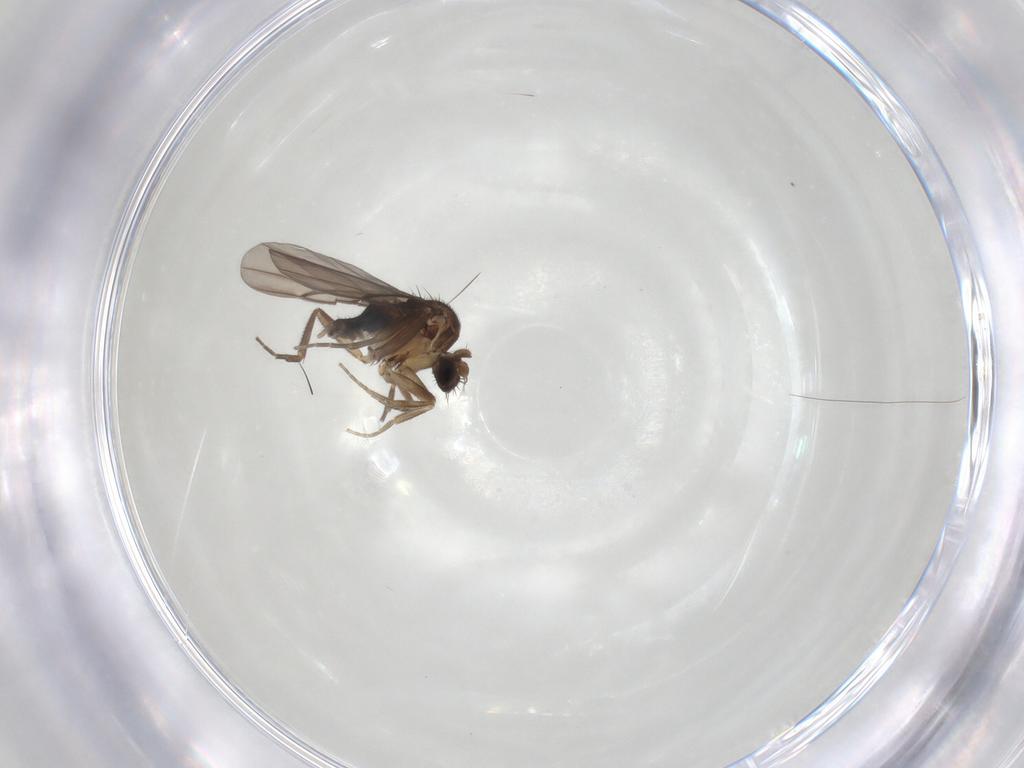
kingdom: Animalia
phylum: Arthropoda
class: Insecta
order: Diptera
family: Phoridae
